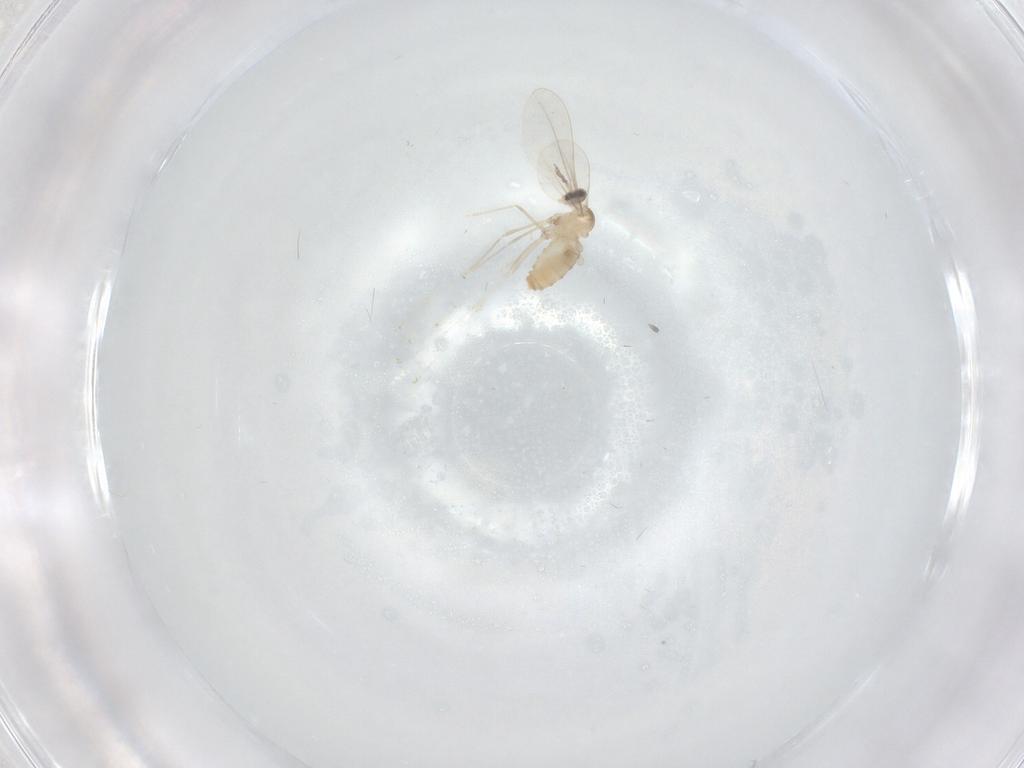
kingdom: Animalia
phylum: Arthropoda
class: Insecta
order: Diptera
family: Cecidomyiidae
